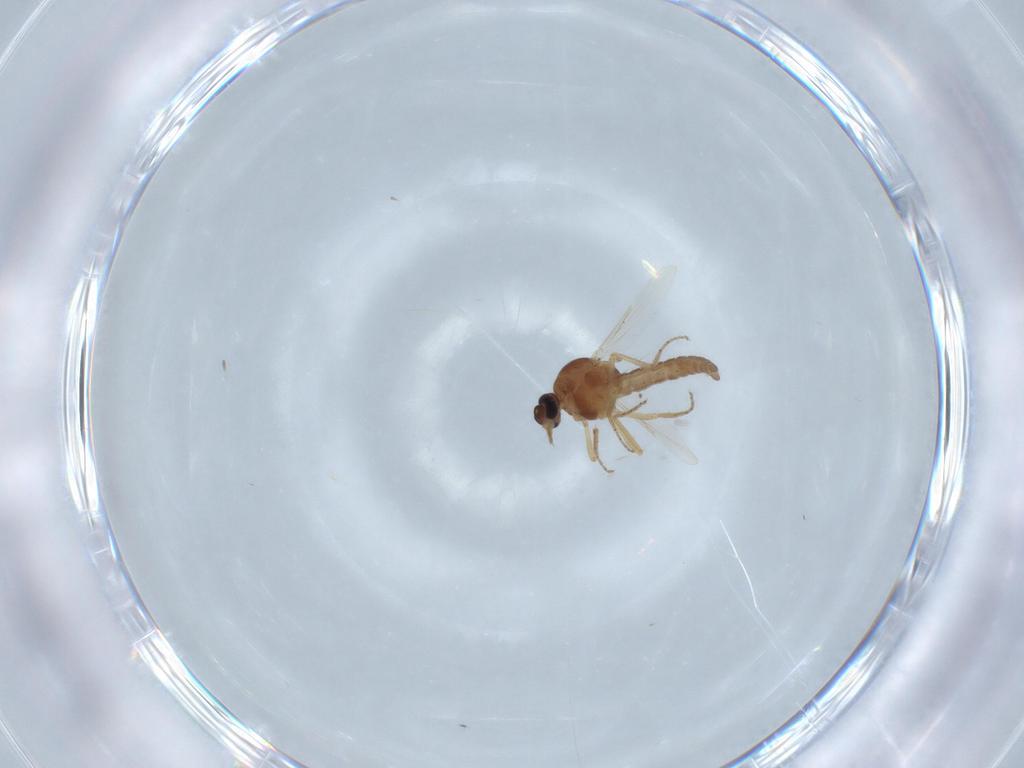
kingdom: Animalia
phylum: Arthropoda
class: Insecta
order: Diptera
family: Ceratopogonidae
